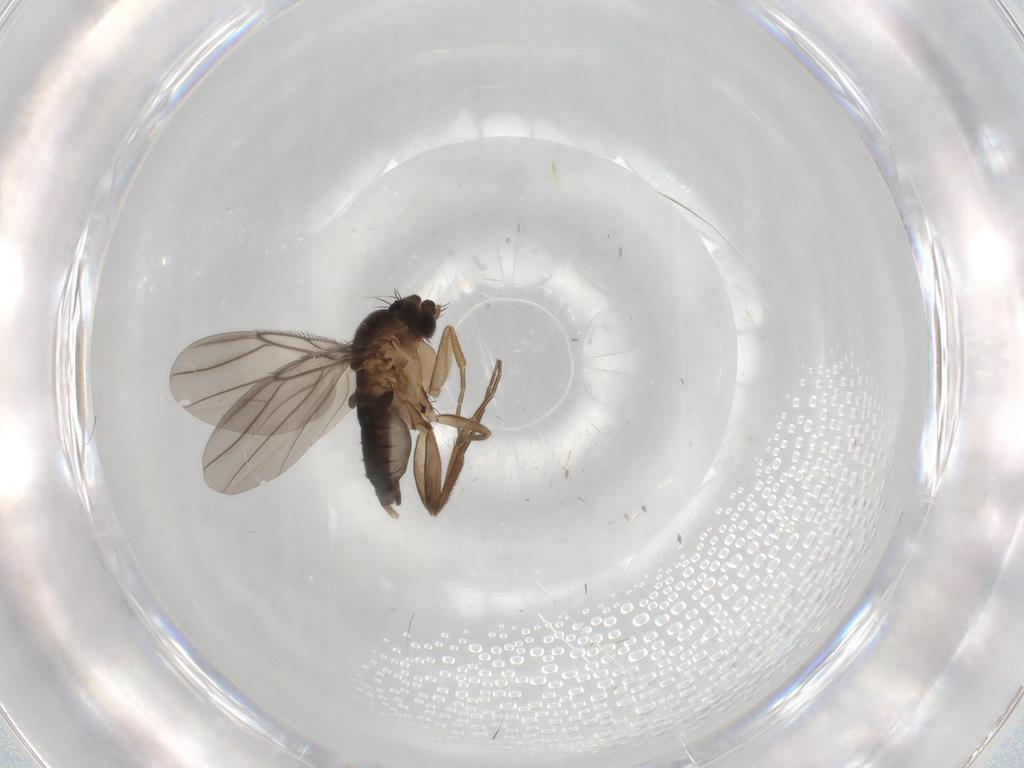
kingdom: Animalia
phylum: Arthropoda
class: Insecta
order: Diptera
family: Phoridae
